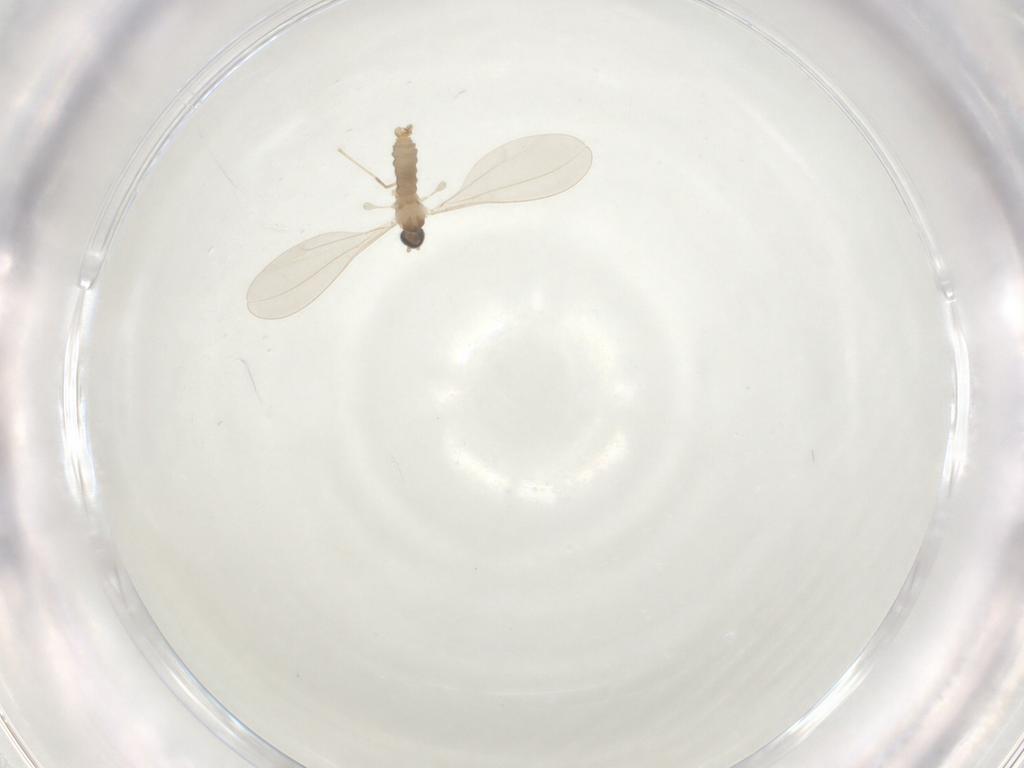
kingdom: Animalia
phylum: Arthropoda
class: Insecta
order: Diptera
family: Cecidomyiidae
